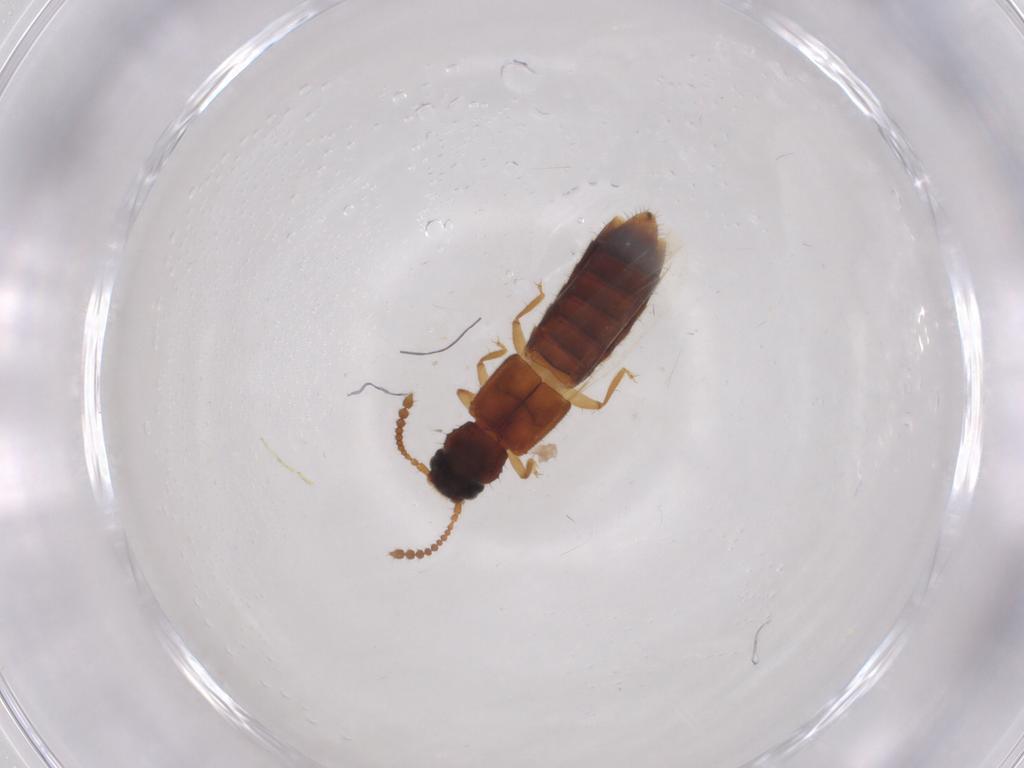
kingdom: Animalia
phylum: Arthropoda
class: Insecta
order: Coleoptera
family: Staphylinidae
